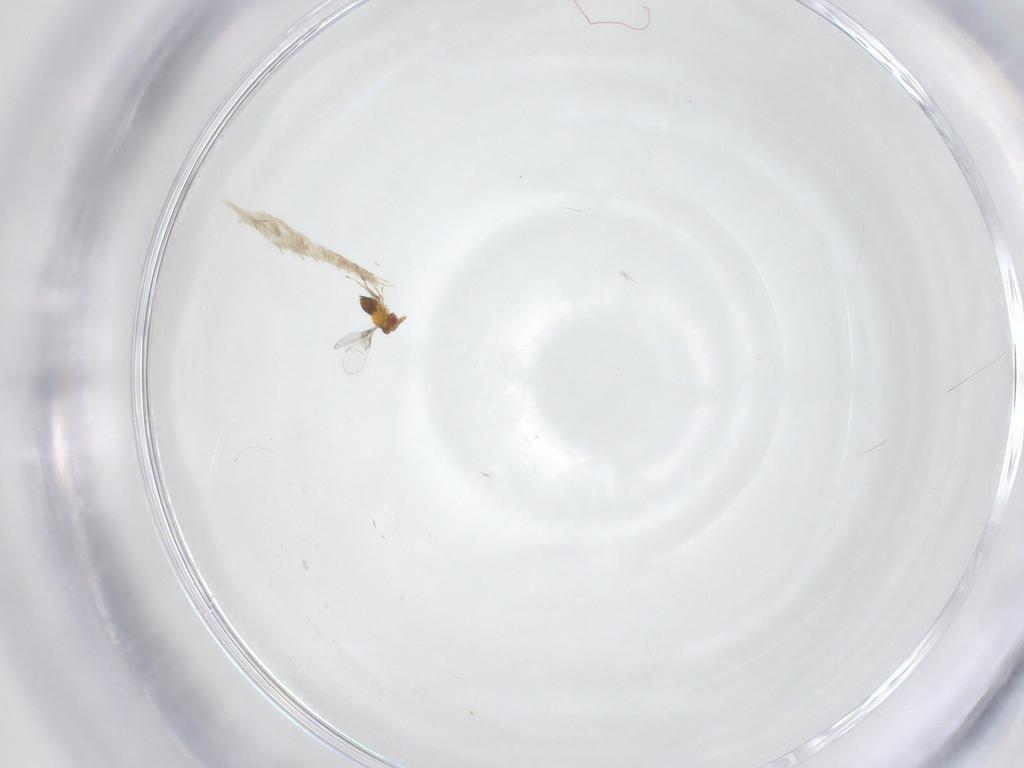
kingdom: Animalia
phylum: Arthropoda
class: Insecta
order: Hymenoptera
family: Trichogrammatidae
